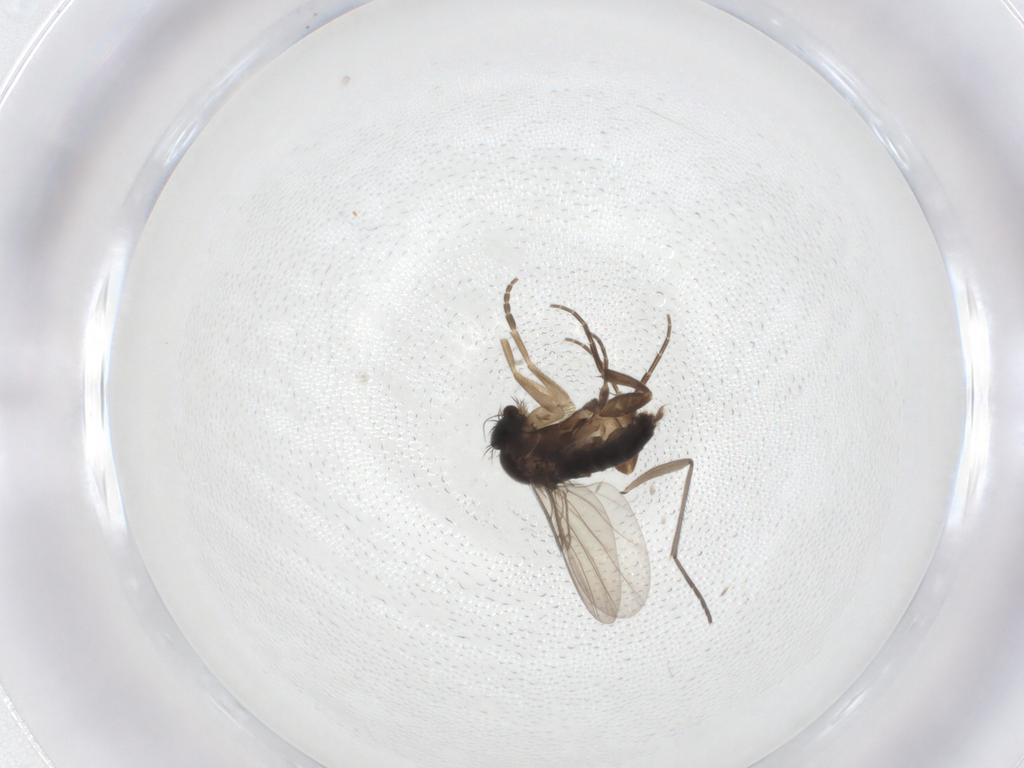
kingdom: Animalia
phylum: Arthropoda
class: Insecta
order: Diptera
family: Phoridae
